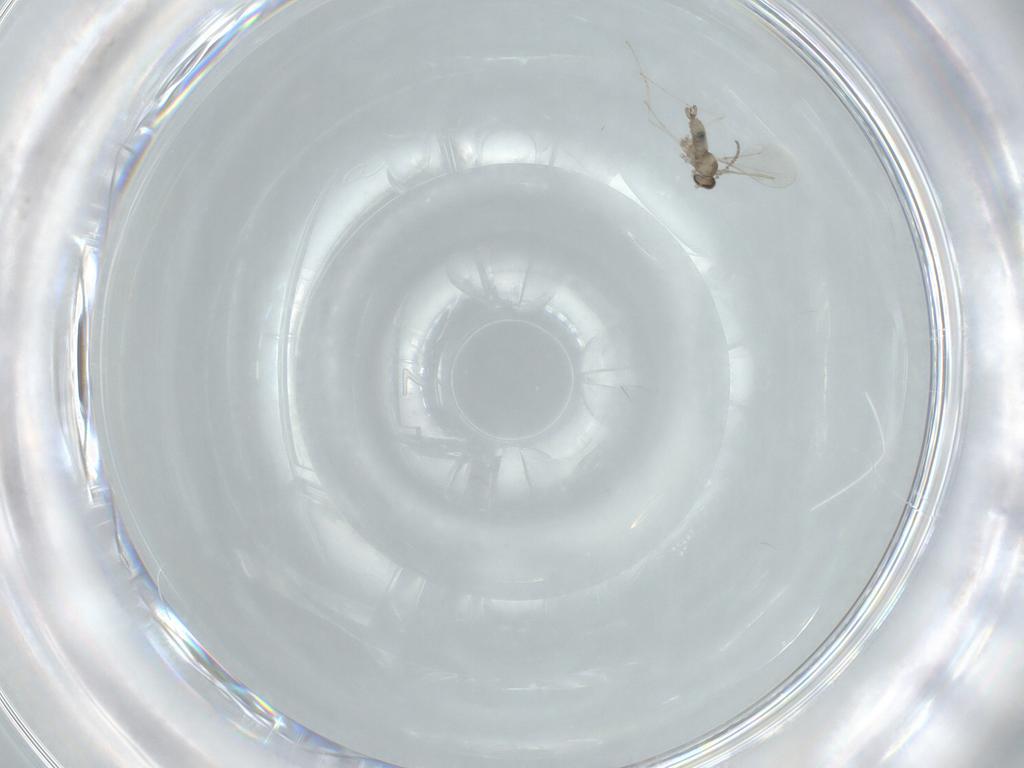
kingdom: Animalia
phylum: Arthropoda
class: Insecta
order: Diptera
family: Cecidomyiidae
